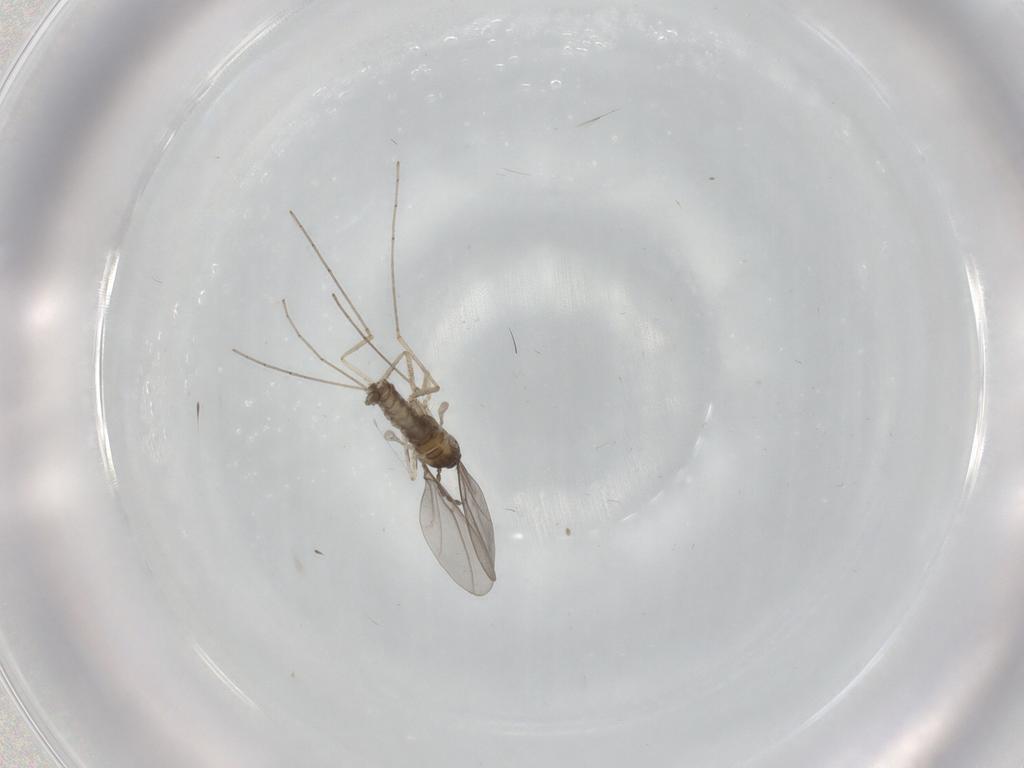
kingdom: Animalia
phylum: Arthropoda
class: Insecta
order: Diptera
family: Cecidomyiidae
